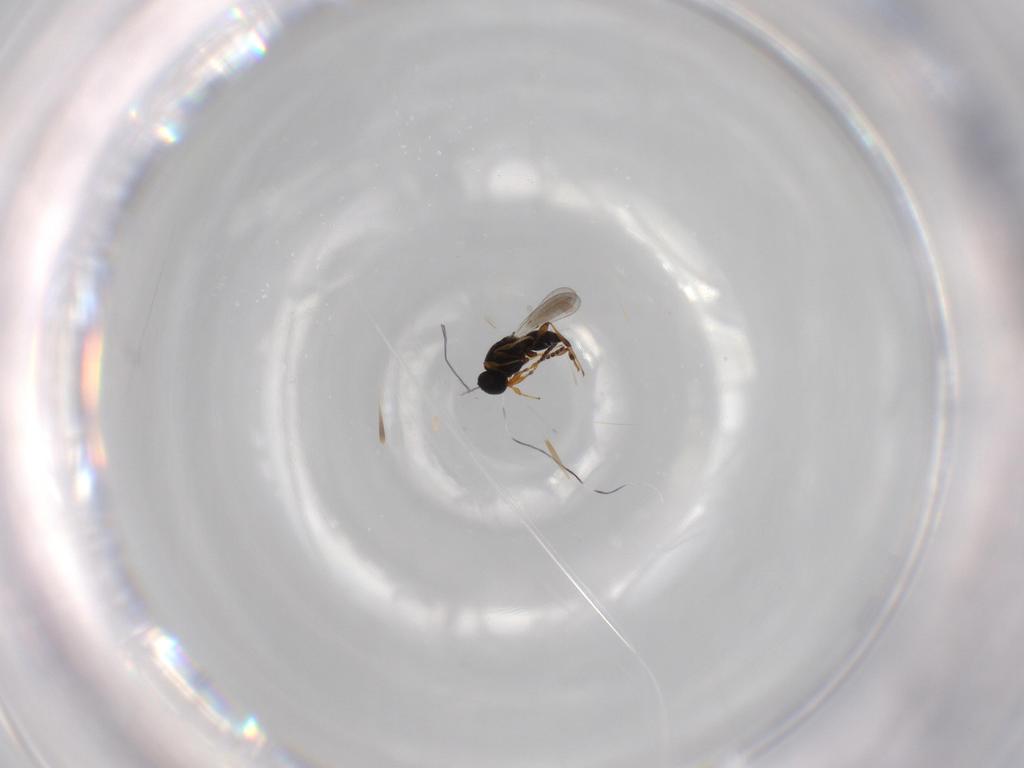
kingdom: Animalia
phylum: Arthropoda
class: Insecta
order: Hymenoptera
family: Platygastridae
